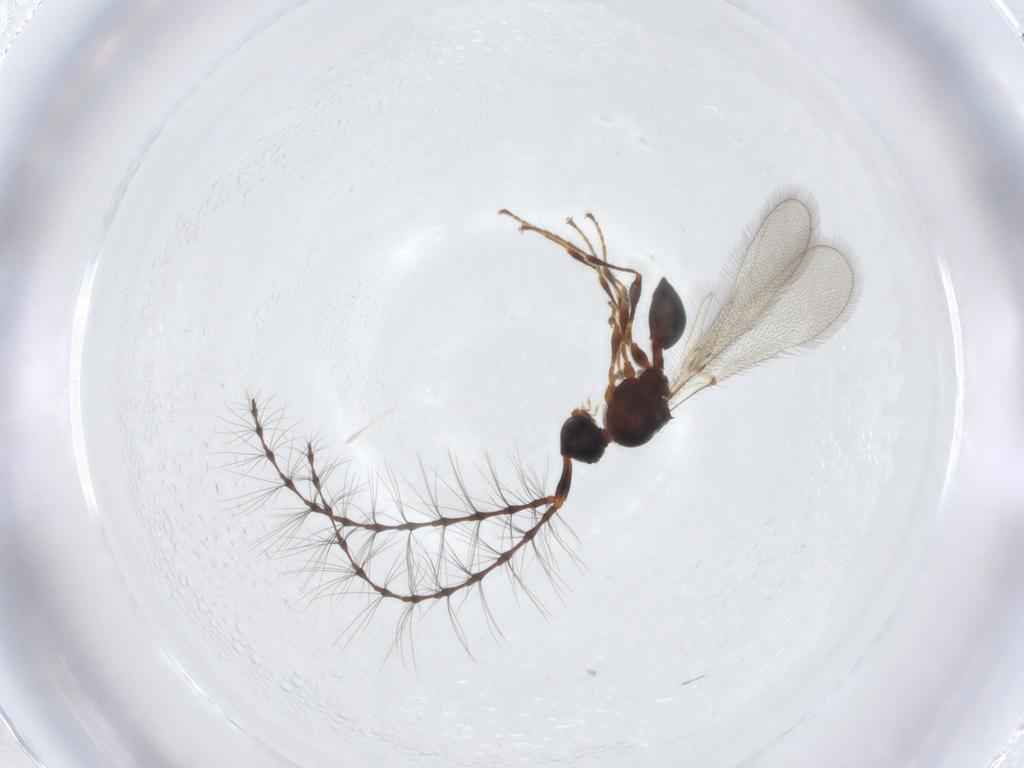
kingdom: Animalia
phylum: Arthropoda
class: Insecta
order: Hymenoptera
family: Diapriidae
